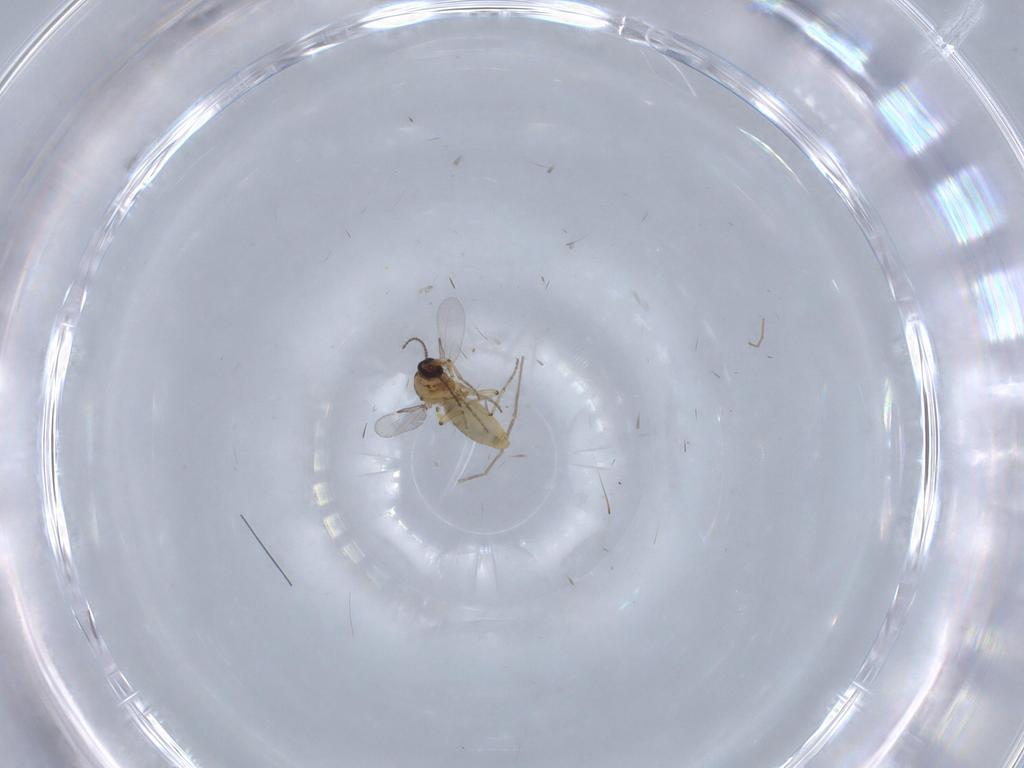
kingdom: Animalia
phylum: Arthropoda
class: Insecta
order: Diptera
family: Ceratopogonidae
